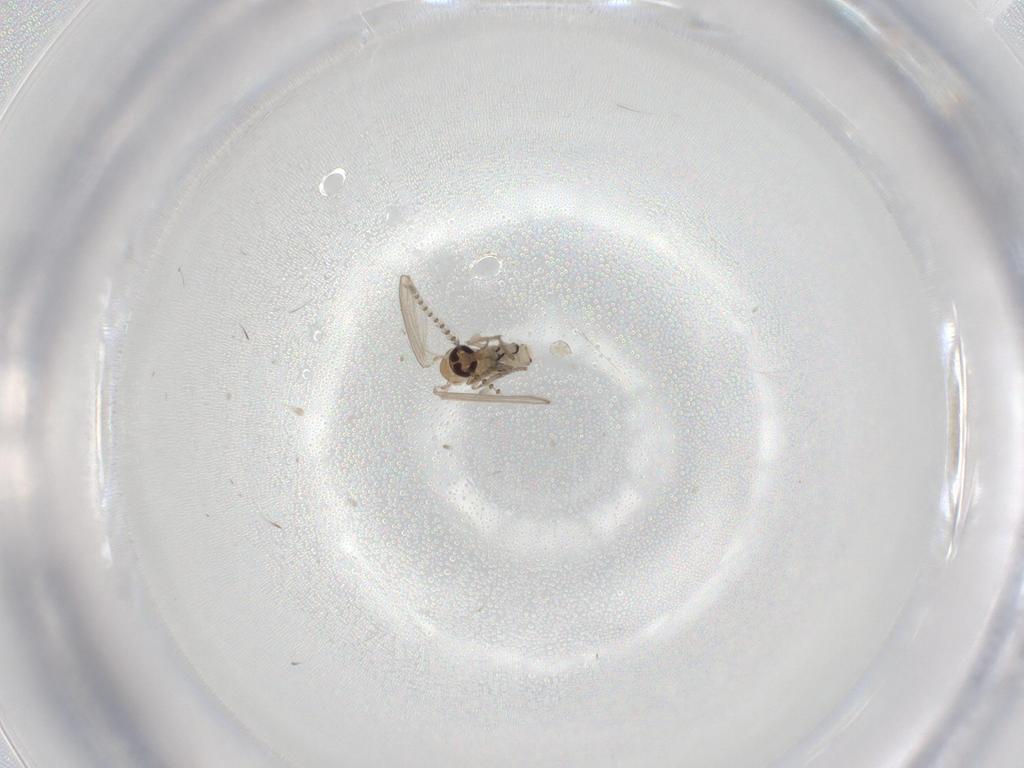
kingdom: Animalia
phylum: Arthropoda
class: Insecta
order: Diptera
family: Psychodidae
